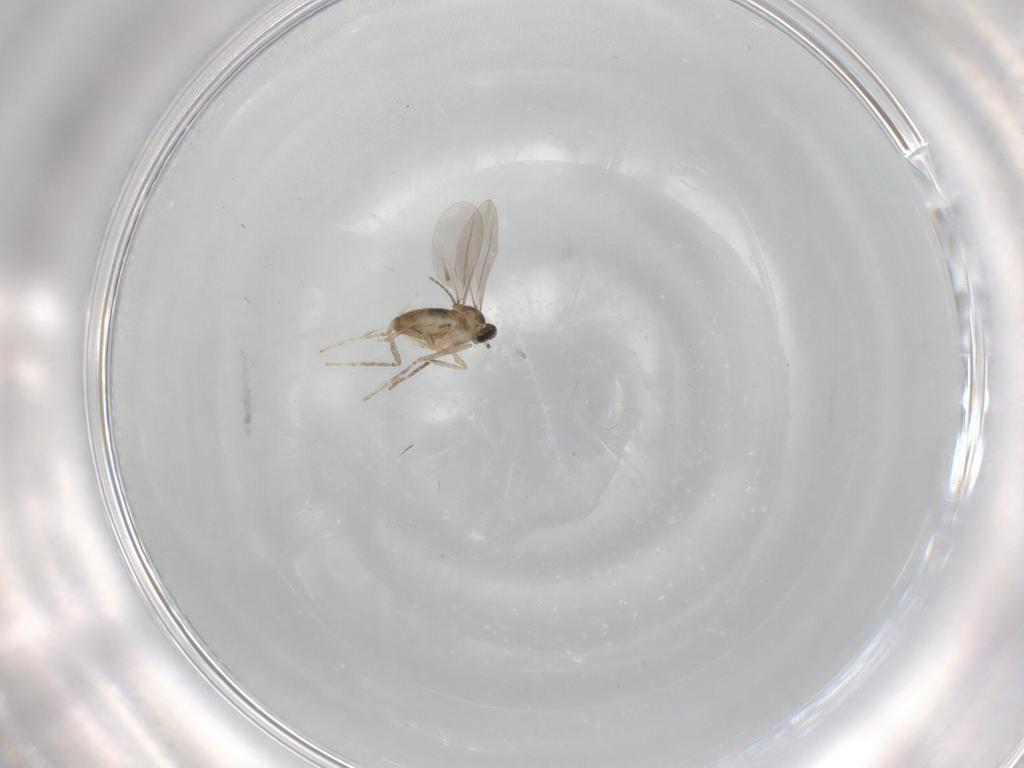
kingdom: Animalia
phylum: Arthropoda
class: Insecta
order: Diptera
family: Cecidomyiidae
